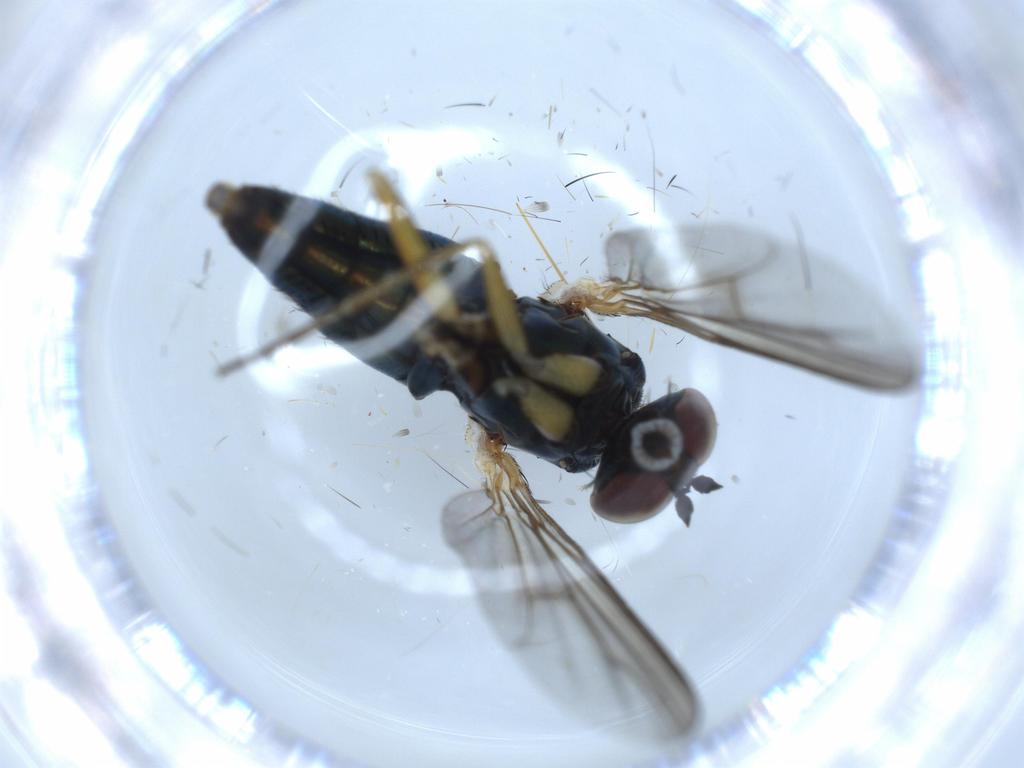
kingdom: Animalia
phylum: Arthropoda
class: Insecta
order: Diptera
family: Dolichopodidae
